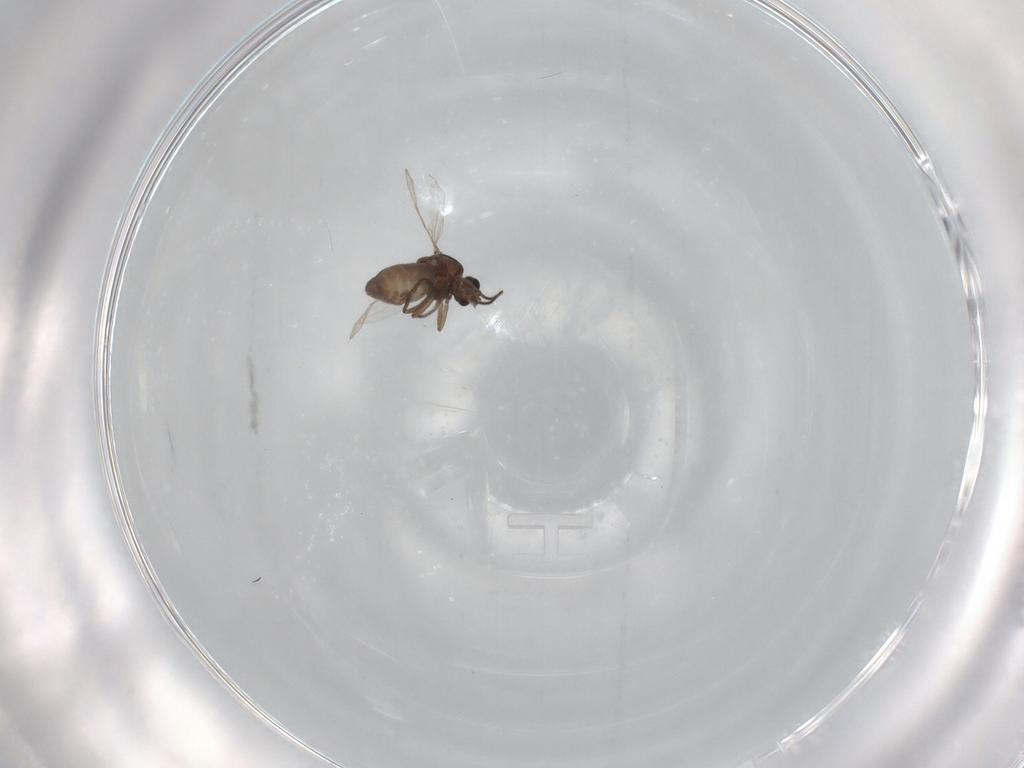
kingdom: Animalia
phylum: Arthropoda
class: Insecta
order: Diptera
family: Ceratopogonidae
